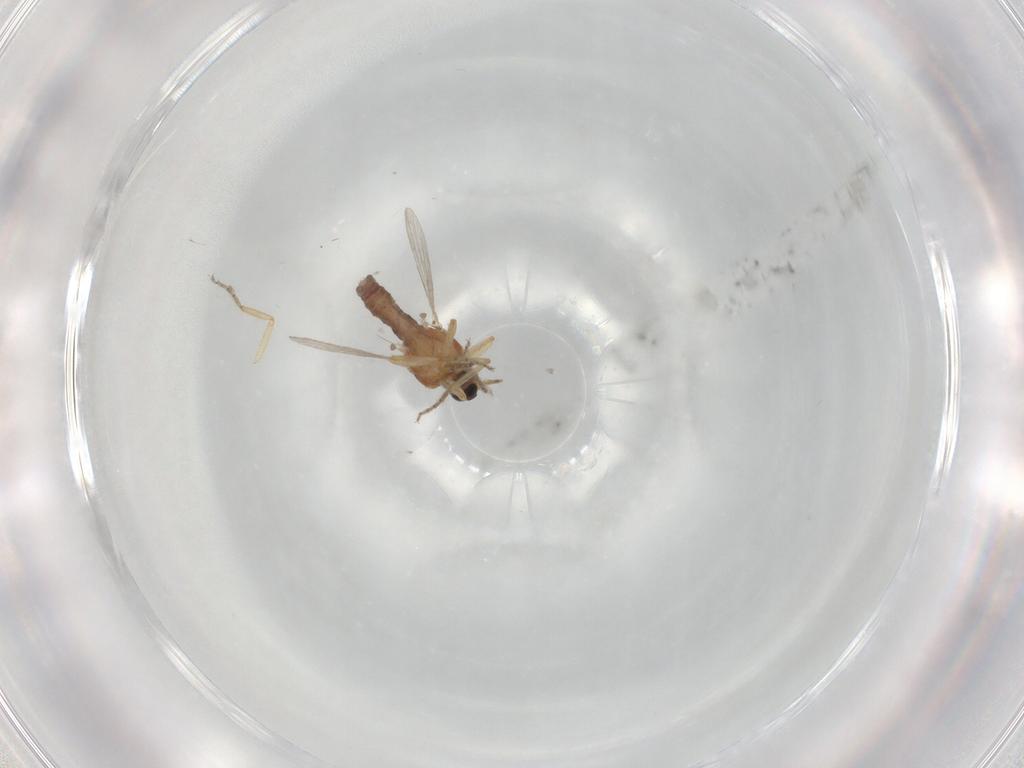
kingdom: Animalia
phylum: Arthropoda
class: Insecta
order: Diptera
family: Ceratopogonidae
